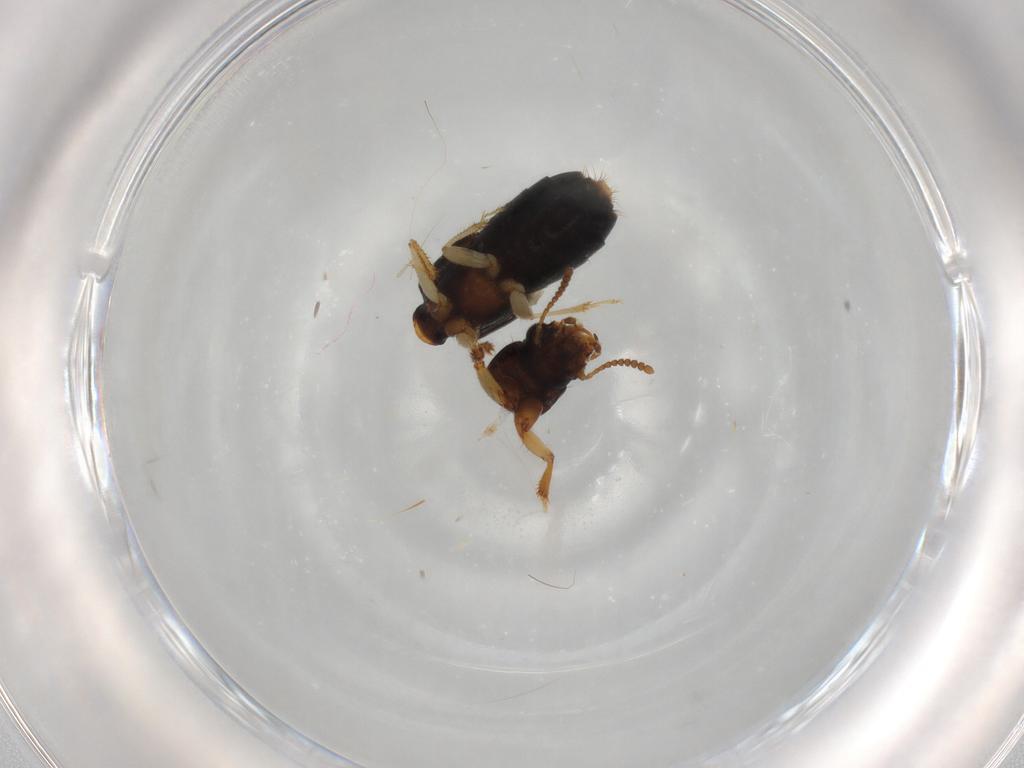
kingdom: Animalia
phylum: Arthropoda
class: Insecta
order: Coleoptera
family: Staphylinidae
